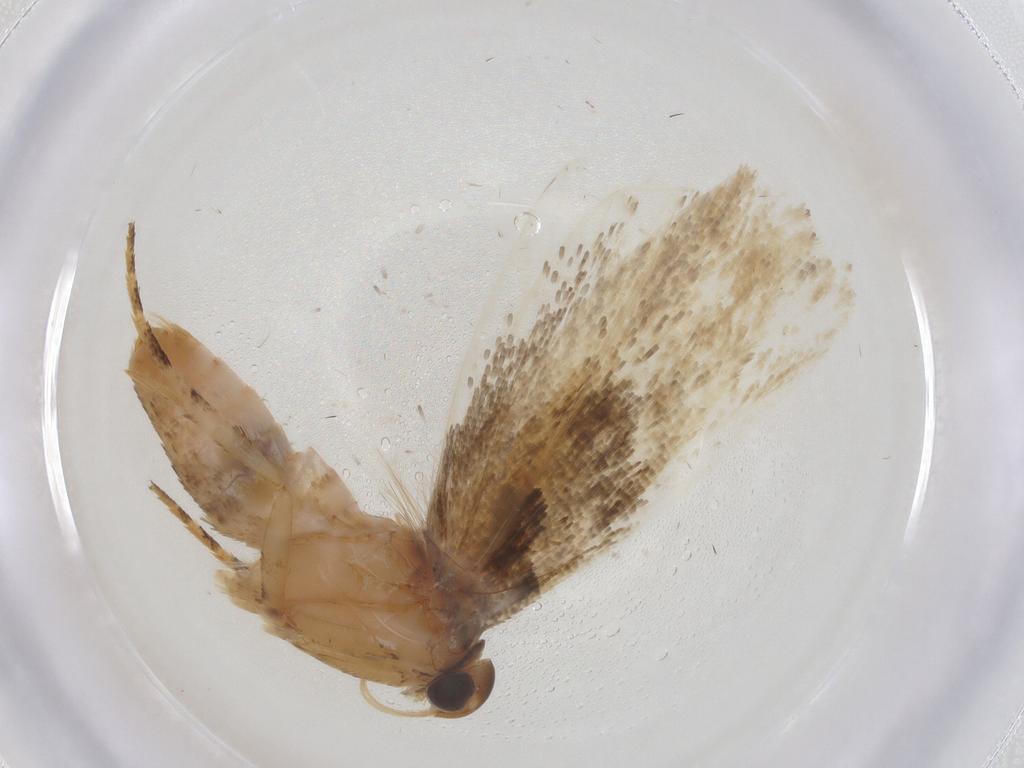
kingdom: Animalia
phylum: Arthropoda
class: Insecta
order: Lepidoptera
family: Gelechiidae
